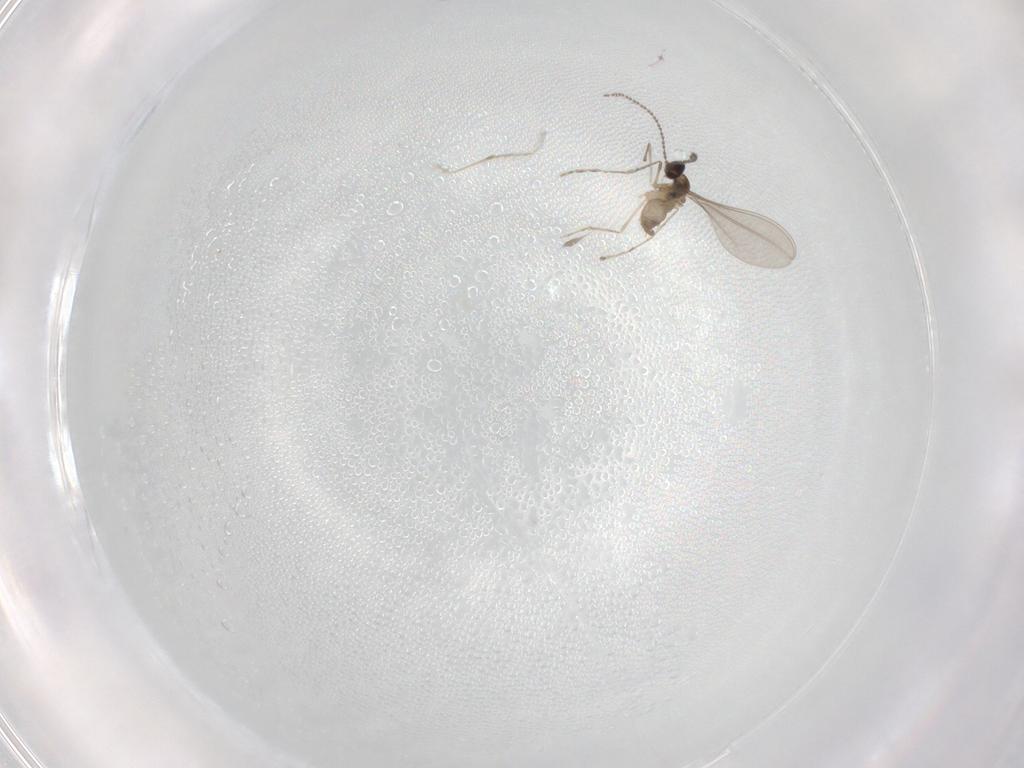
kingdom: Animalia
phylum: Arthropoda
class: Insecta
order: Diptera
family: Cecidomyiidae
